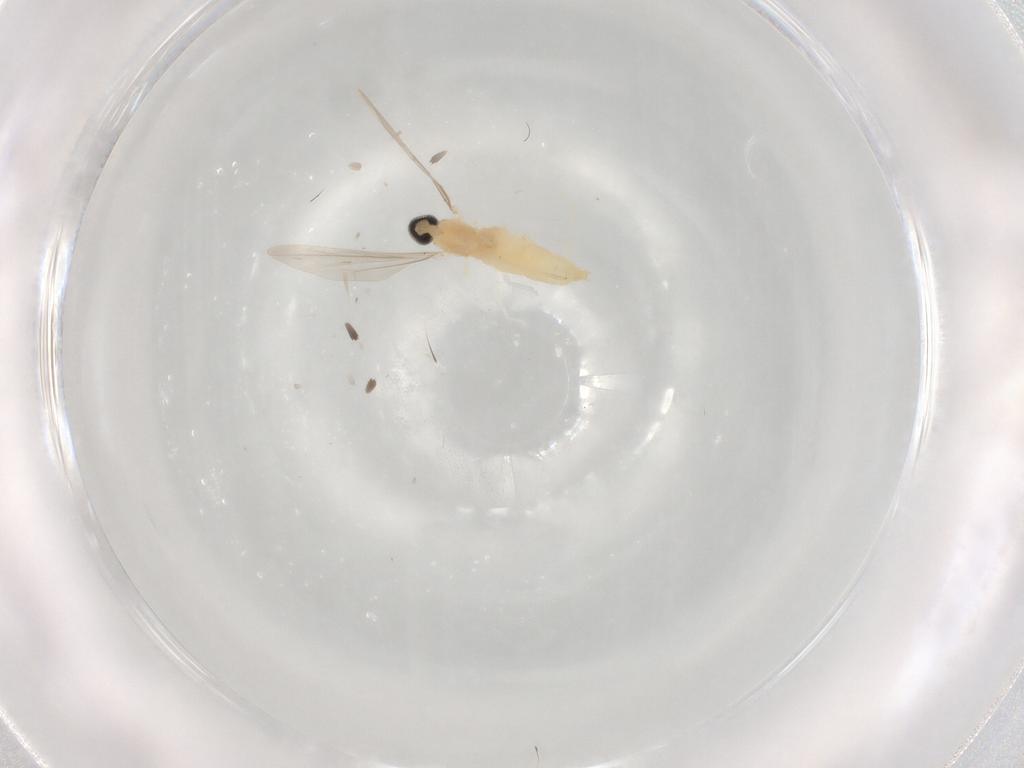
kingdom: Animalia
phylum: Arthropoda
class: Insecta
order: Diptera
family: Cecidomyiidae
